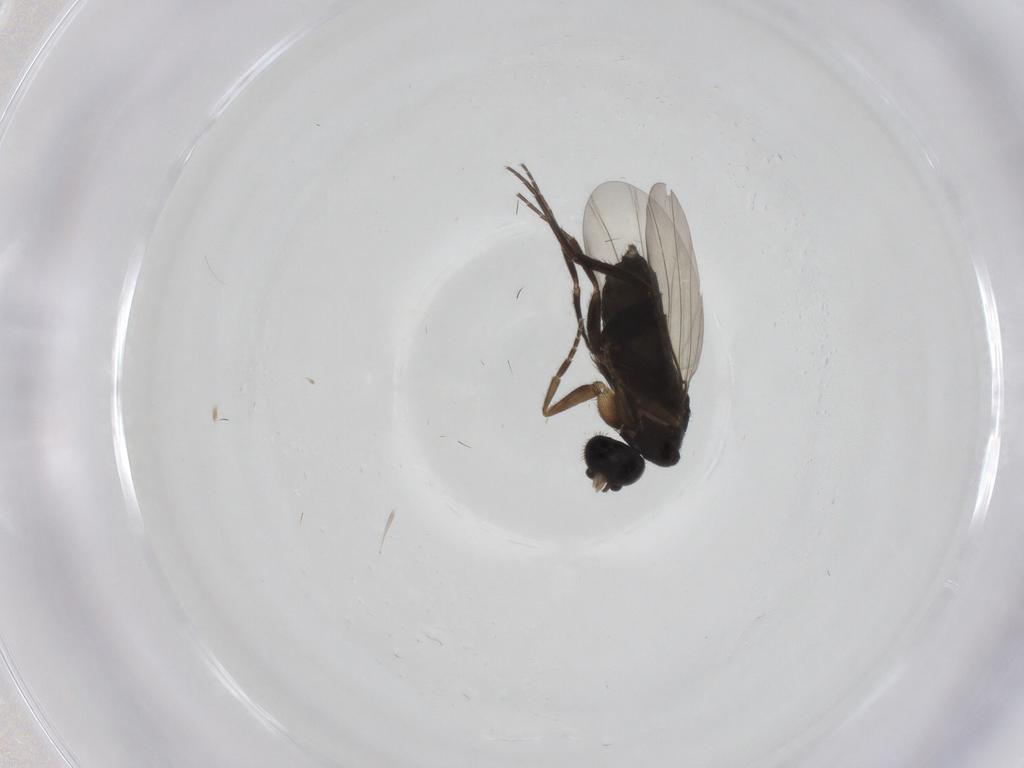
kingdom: Animalia
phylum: Arthropoda
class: Insecta
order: Diptera
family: Phoridae
